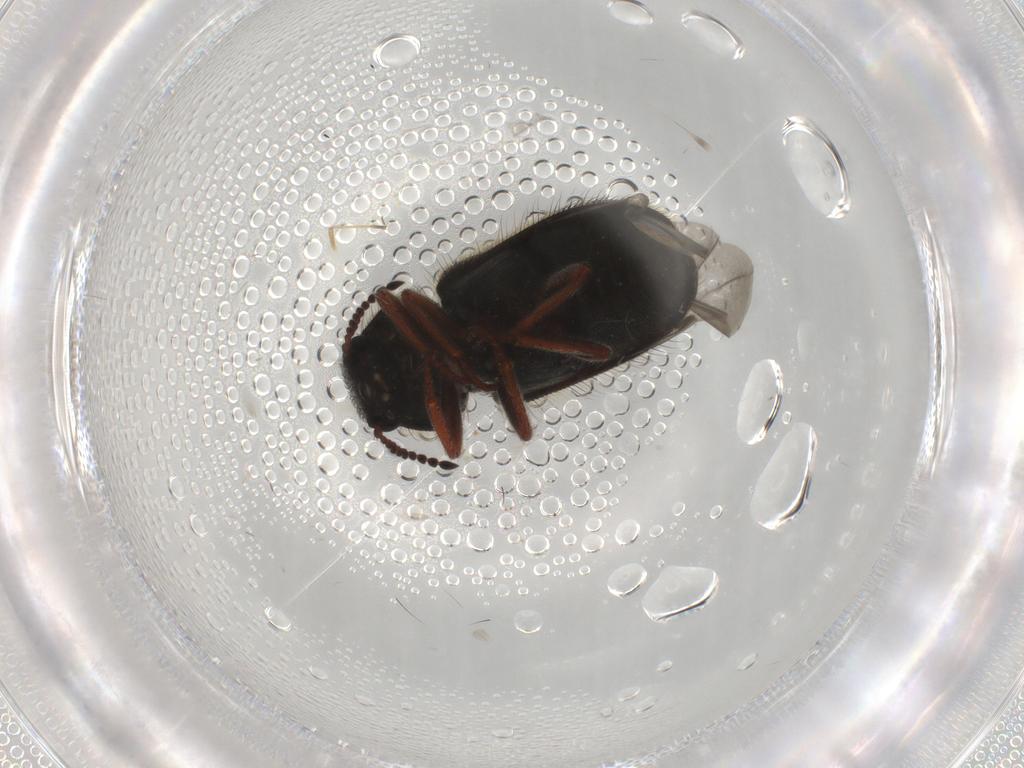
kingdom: Animalia
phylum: Arthropoda
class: Insecta
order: Coleoptera
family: Melyridae
